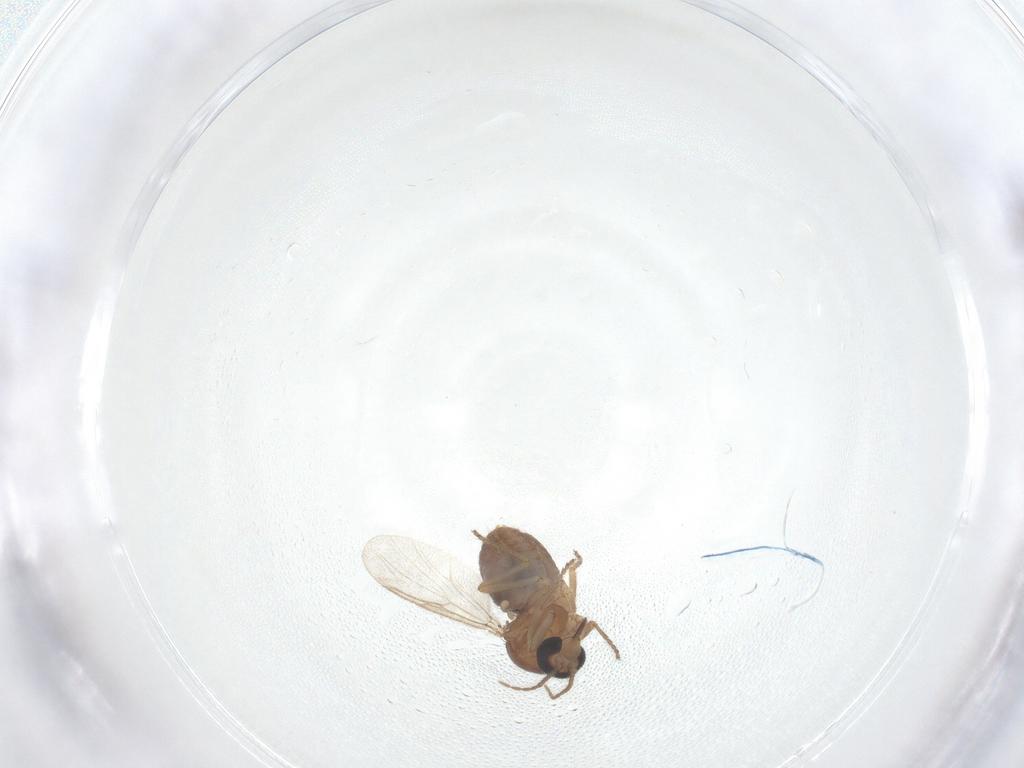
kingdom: Animalia
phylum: Arthropoda
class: Insecta
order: Diptera
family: Sciaridae
